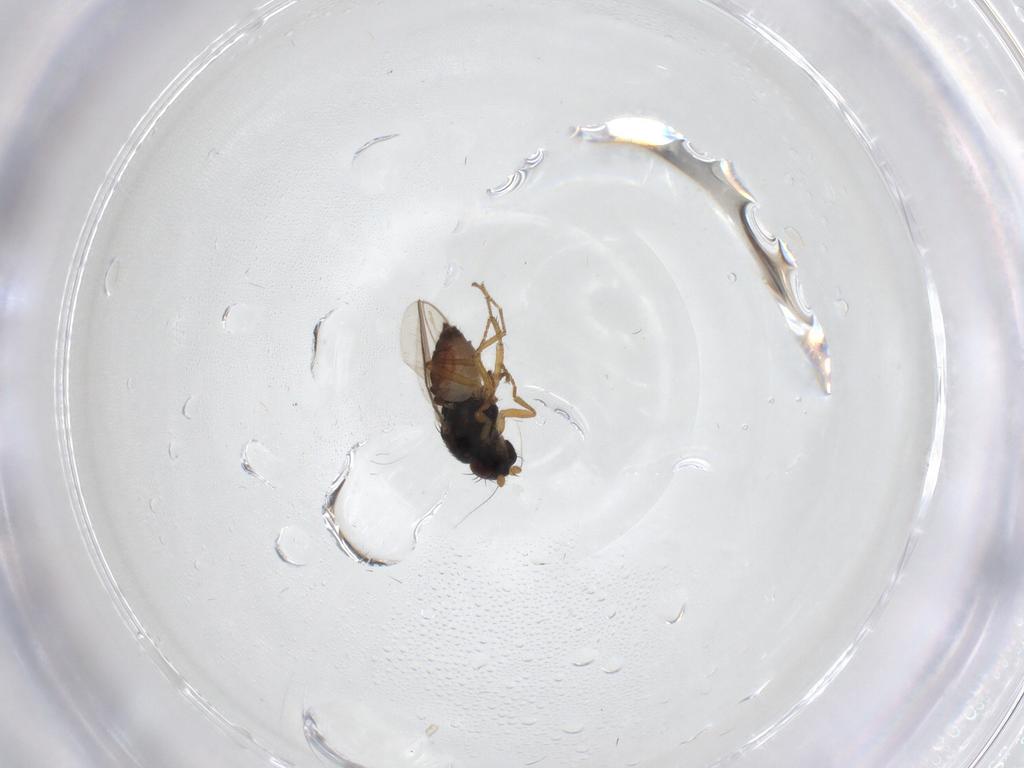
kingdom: Animalia
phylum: Arthropoda
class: Insecta
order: Diptera
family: Sphaeroceridae
